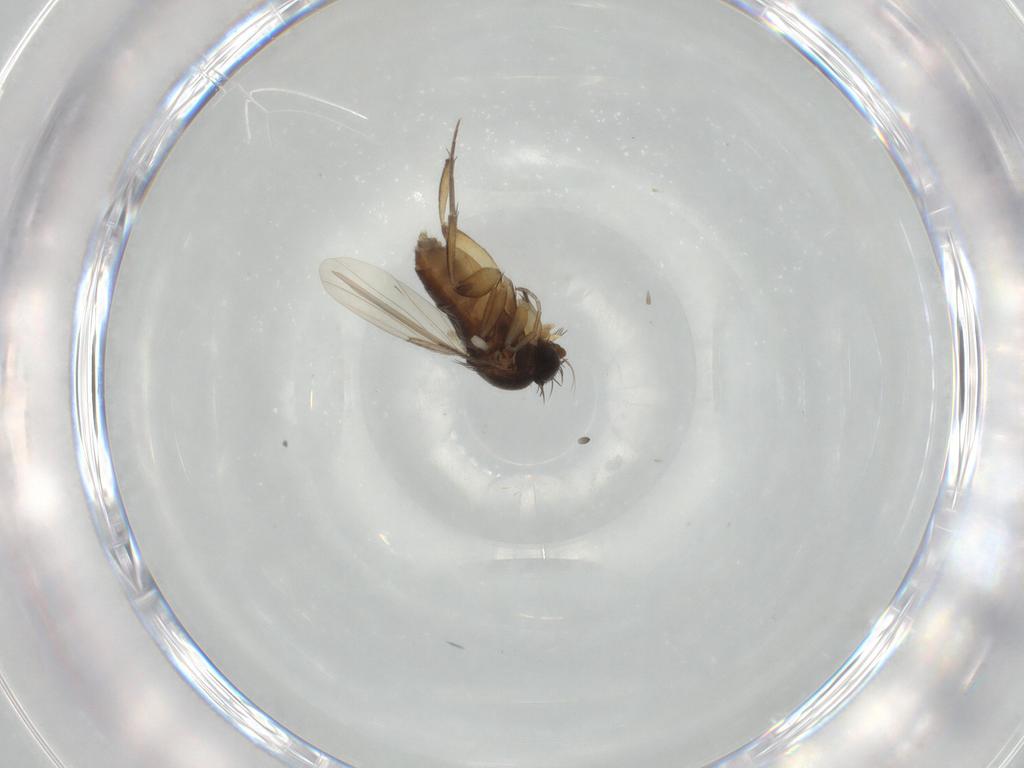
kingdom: Animalia
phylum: Arthropoda
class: Insecta
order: Diptera
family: Phoridae
